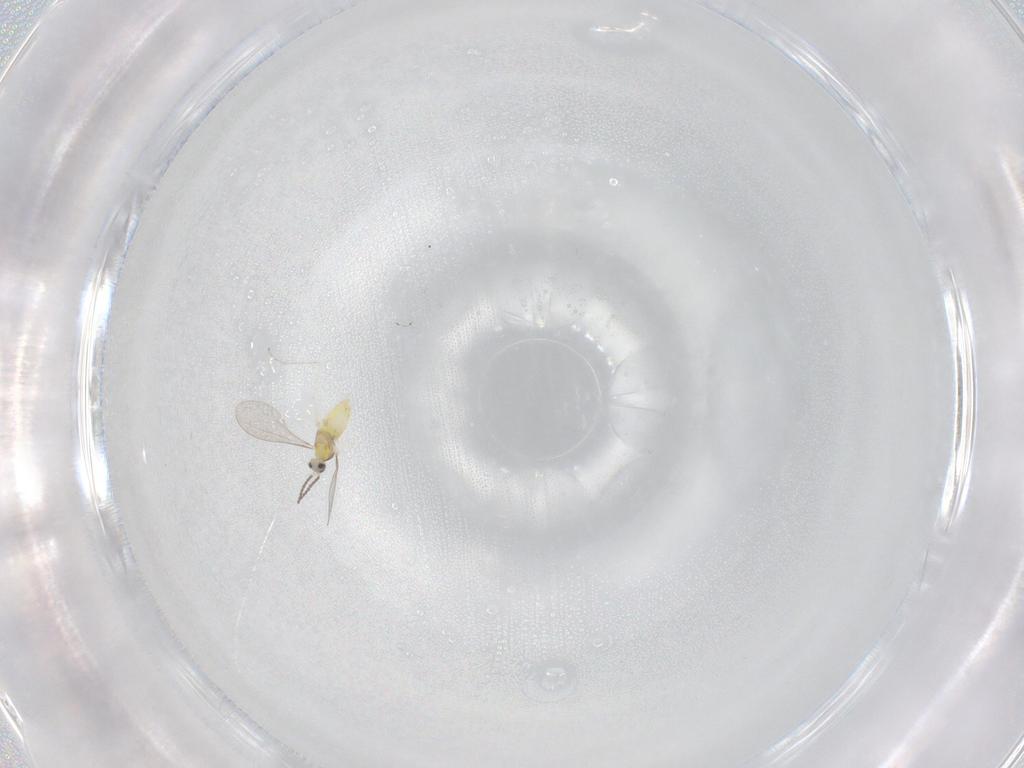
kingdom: Animalia
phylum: Arthropoda
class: Insecta
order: Diptera
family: Cecidomyiidae
